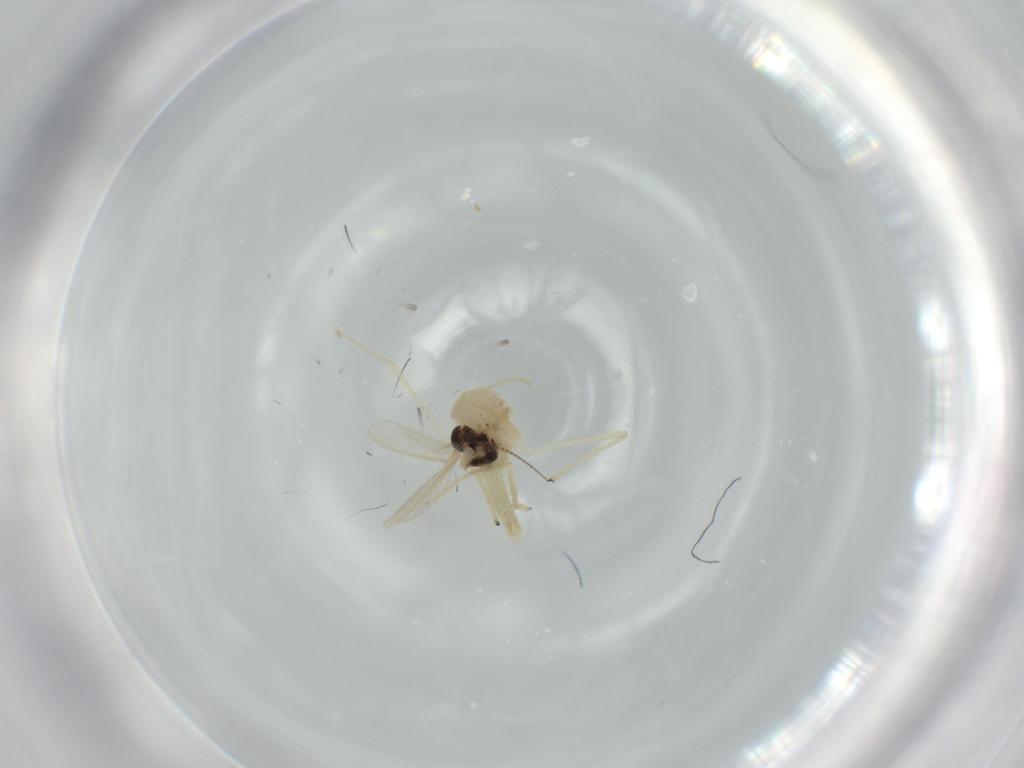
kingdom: Animalia
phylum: Arthropoda
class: Insecta
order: Diptera
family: Chironomidae
